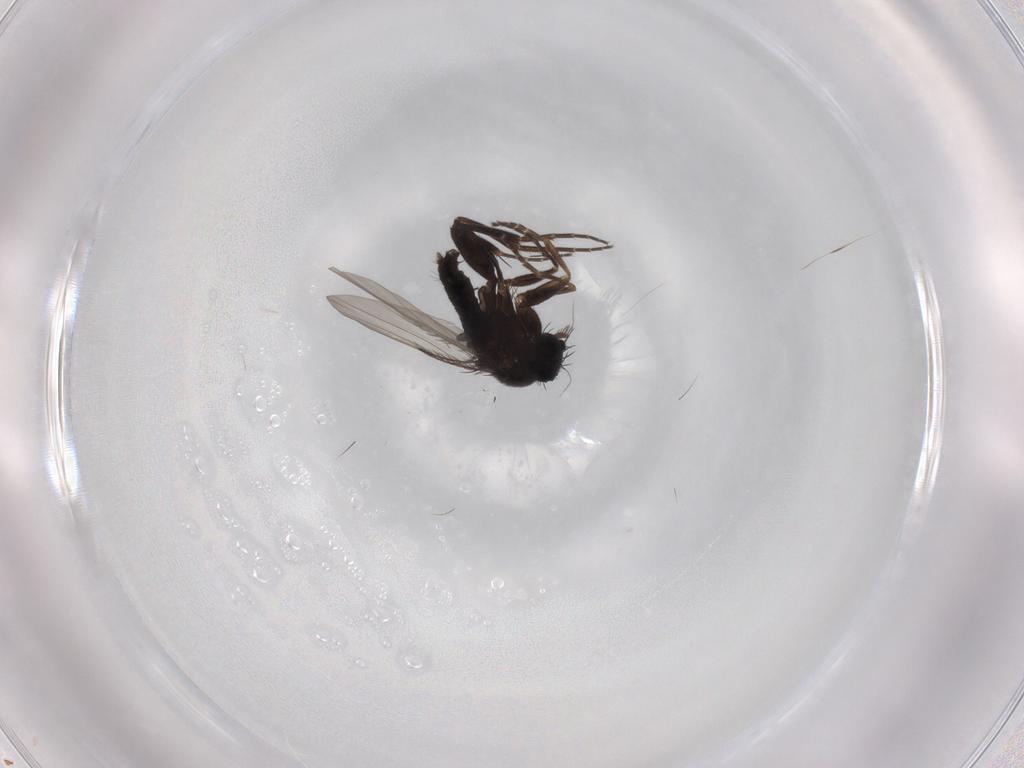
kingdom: Animalia
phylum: Arthropoda
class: Insecta
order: Diptera
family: Phoridae
